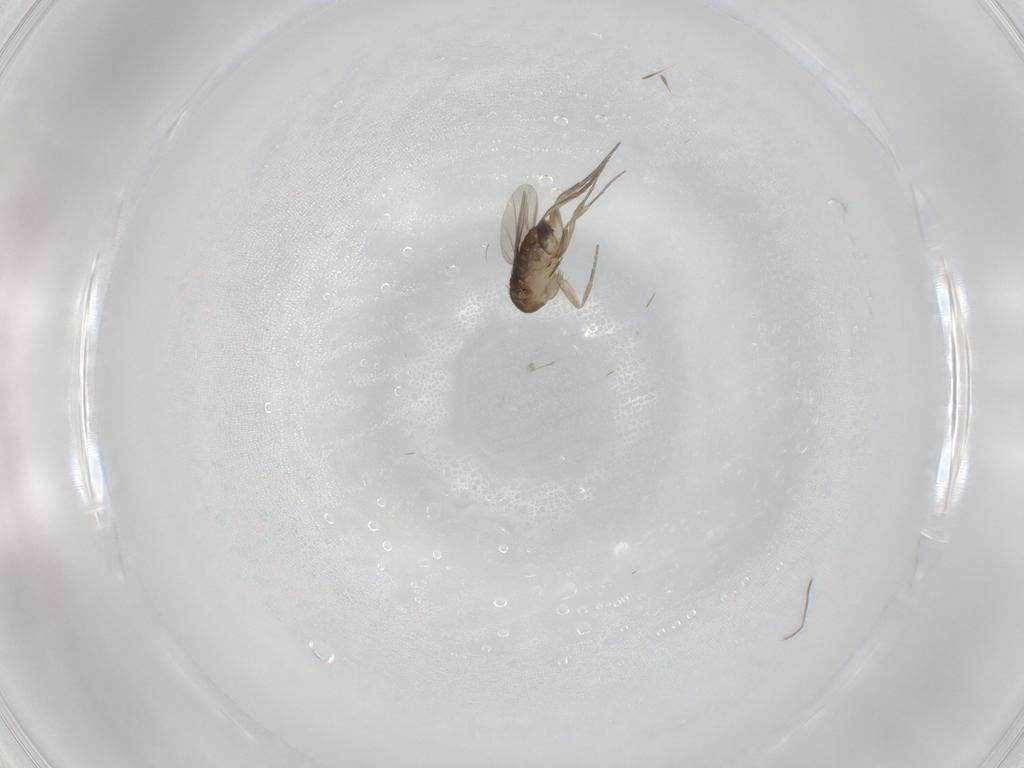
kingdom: Animalia
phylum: Arthropoda
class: Insecta
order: Diptera
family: Phoridae
